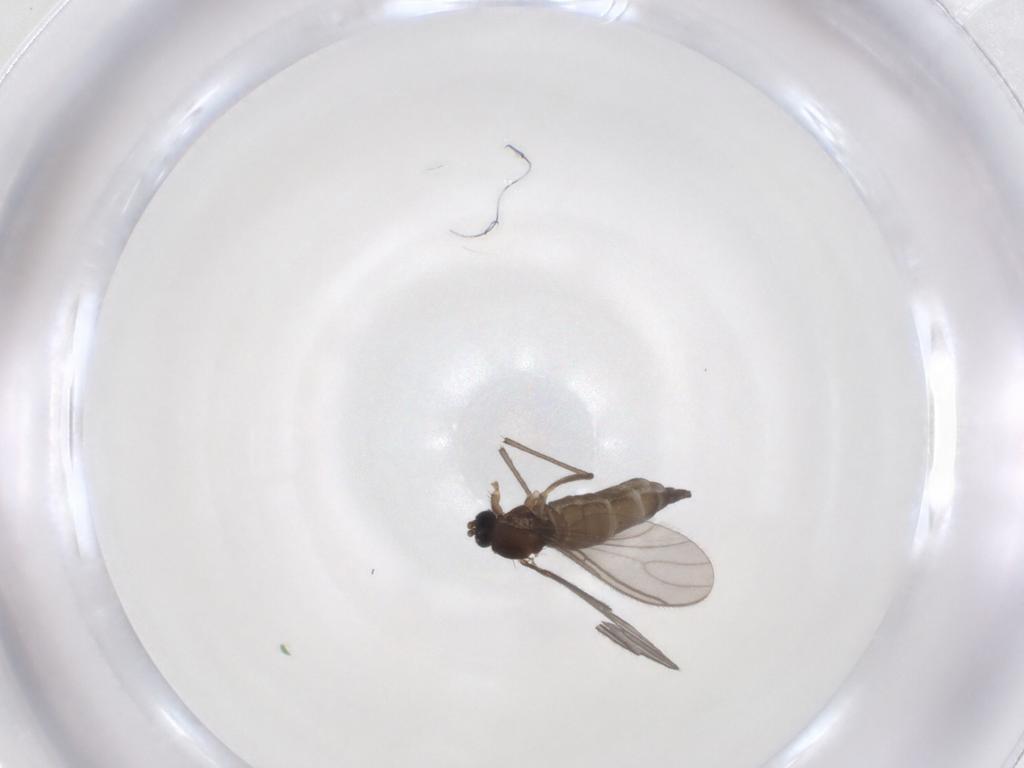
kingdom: Animalia
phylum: Arthropoda
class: Insecta
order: Diptera
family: Sciaridae
